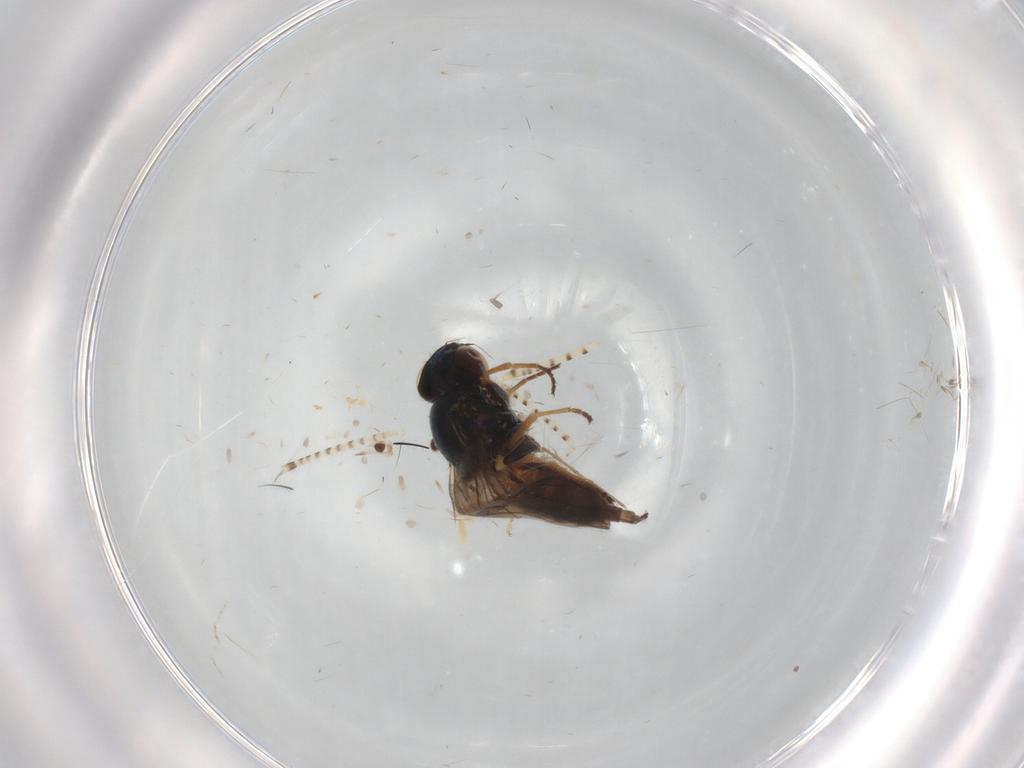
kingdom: Animalia
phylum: Arthropoda
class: Insecta
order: Diptera
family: Chloropidae
